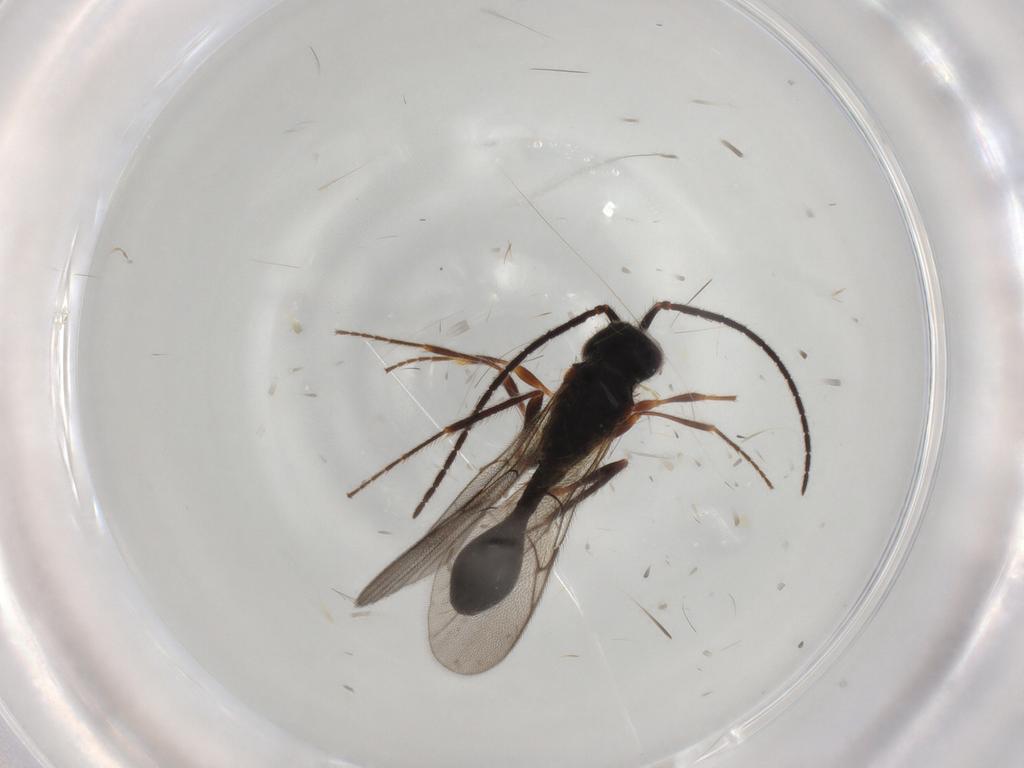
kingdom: Animalia
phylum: Arthropoda
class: Insecta
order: Hymenoptera
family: Diapriidae
